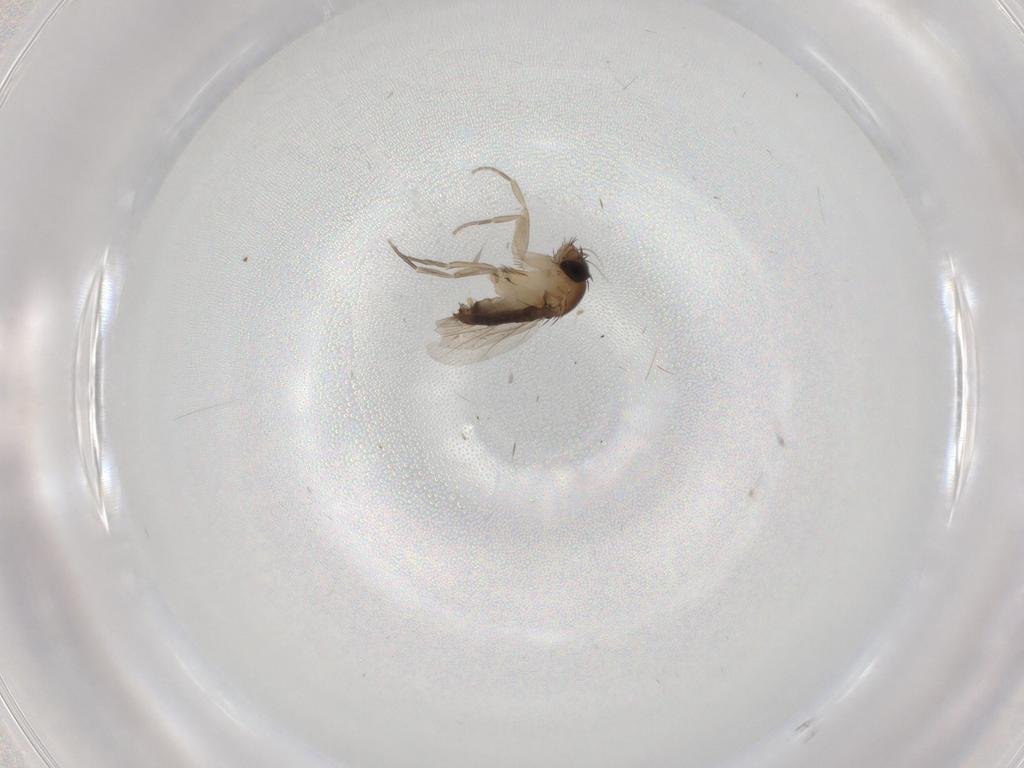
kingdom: Animalia
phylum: Arthropoda
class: Insecta
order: Diptera
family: Phoridae
